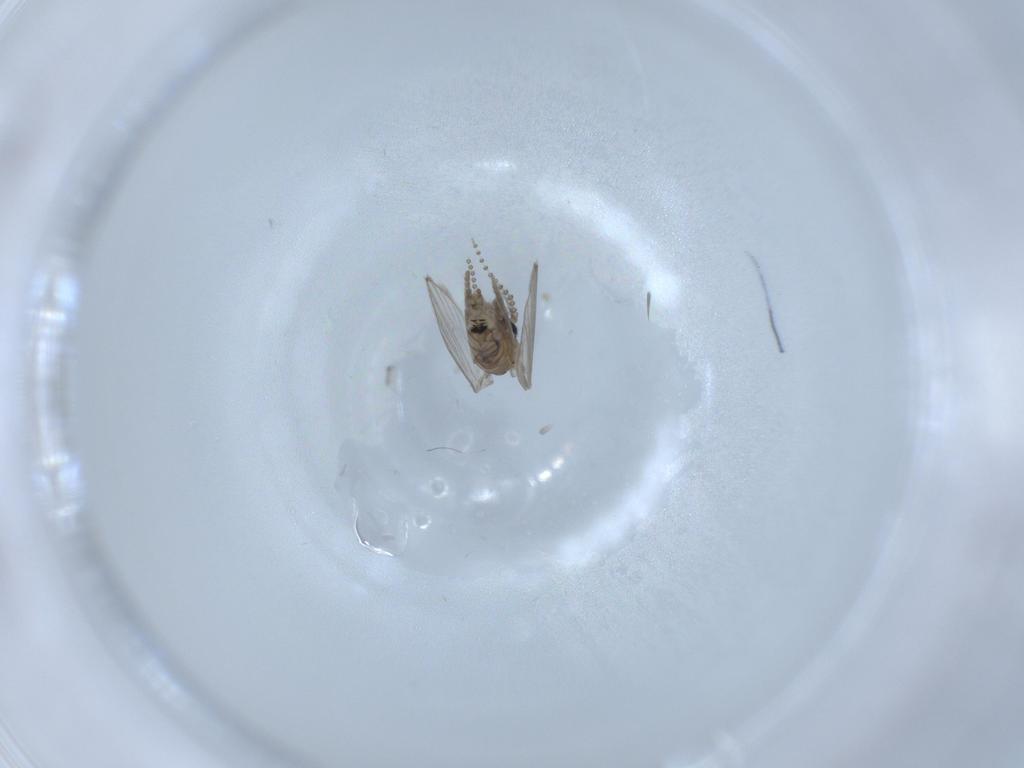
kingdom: Animalia
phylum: Arthropoda
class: Insecta
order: Diptera
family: Psychodidae
